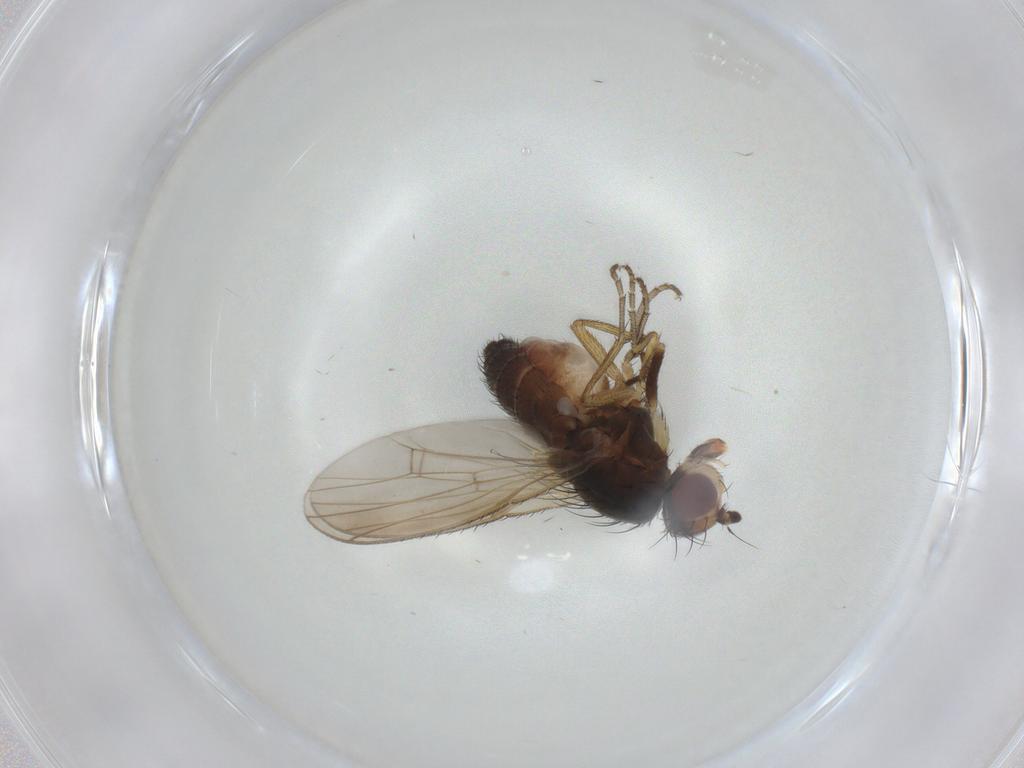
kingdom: Animalia
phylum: Arthropoda
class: Insecta
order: Diptera
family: Heleomyzidae
